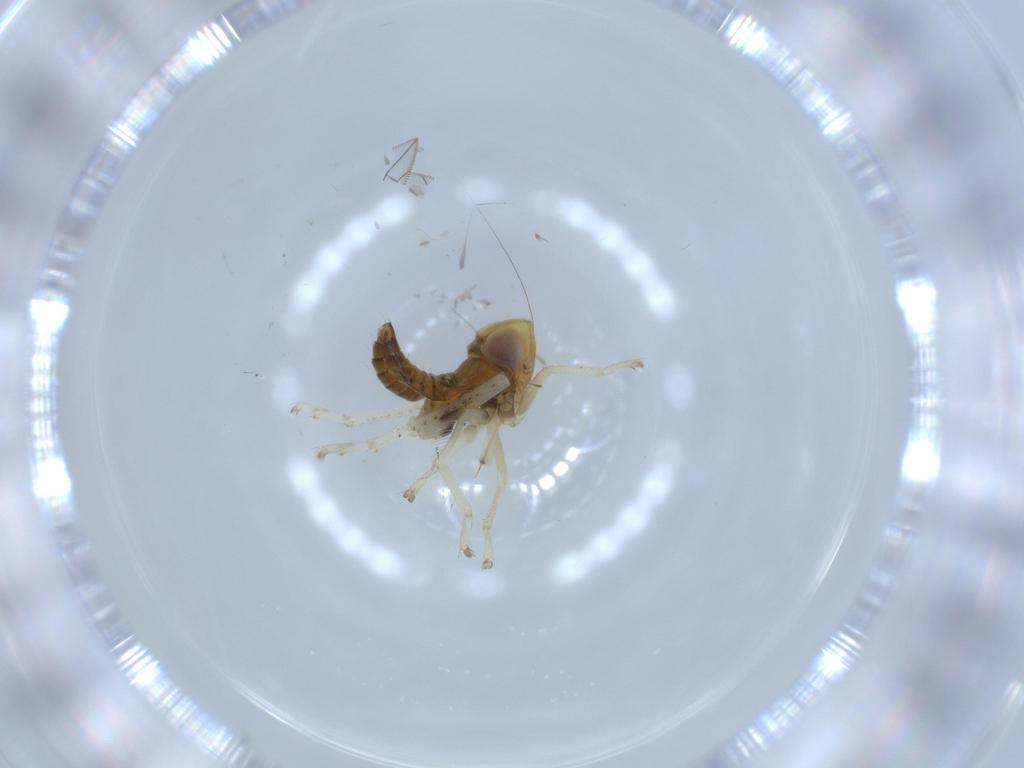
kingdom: Animalia
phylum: Arthropoda
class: Insecta
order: Hemiptera
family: Cicadellidae
